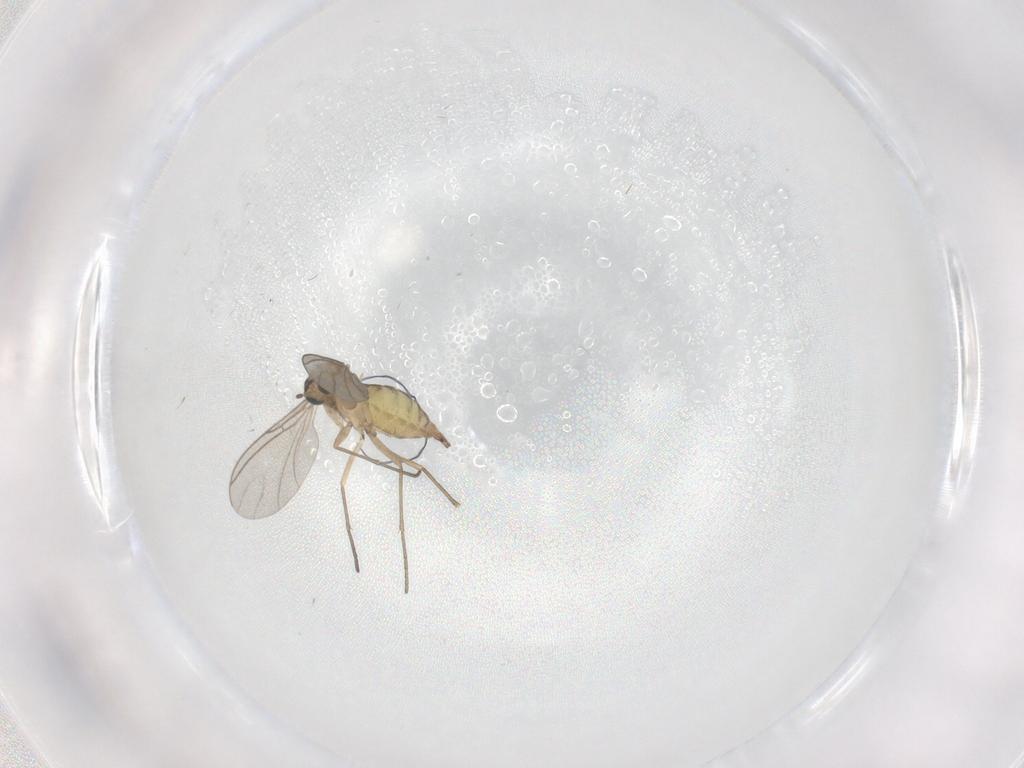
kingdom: Animalia
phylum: Arthropoda
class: Insecta
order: Diptera
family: Sciaridae
